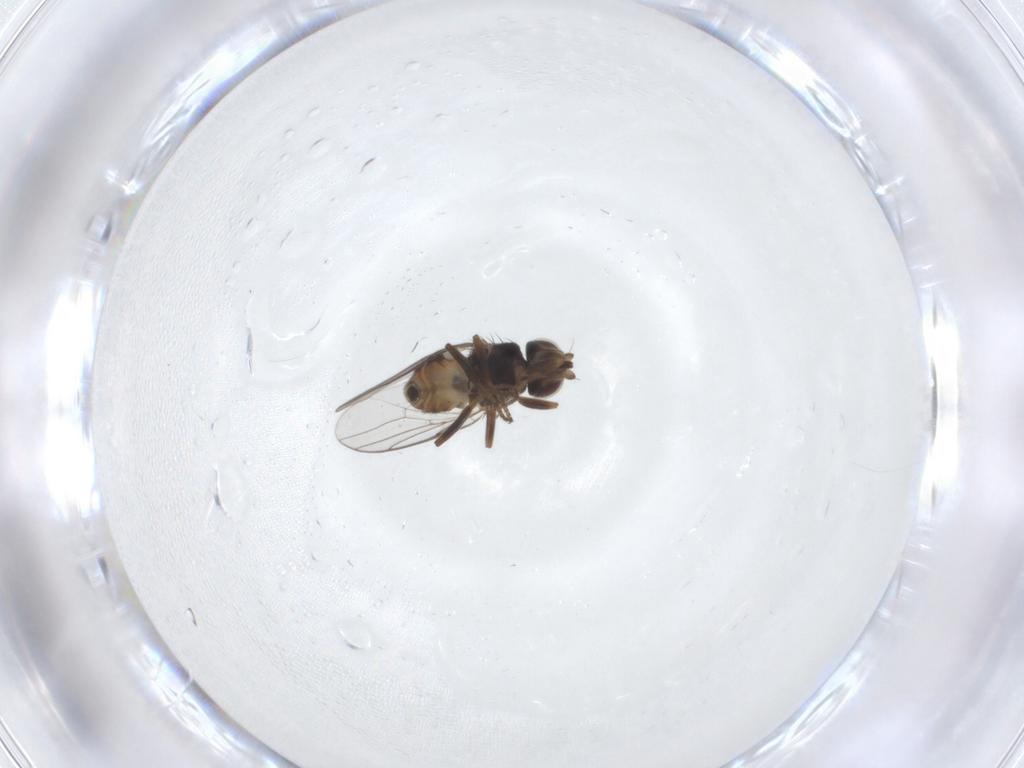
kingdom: Animalia
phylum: Arthropoda
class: Insecta
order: Diptera
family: Chloropidae
